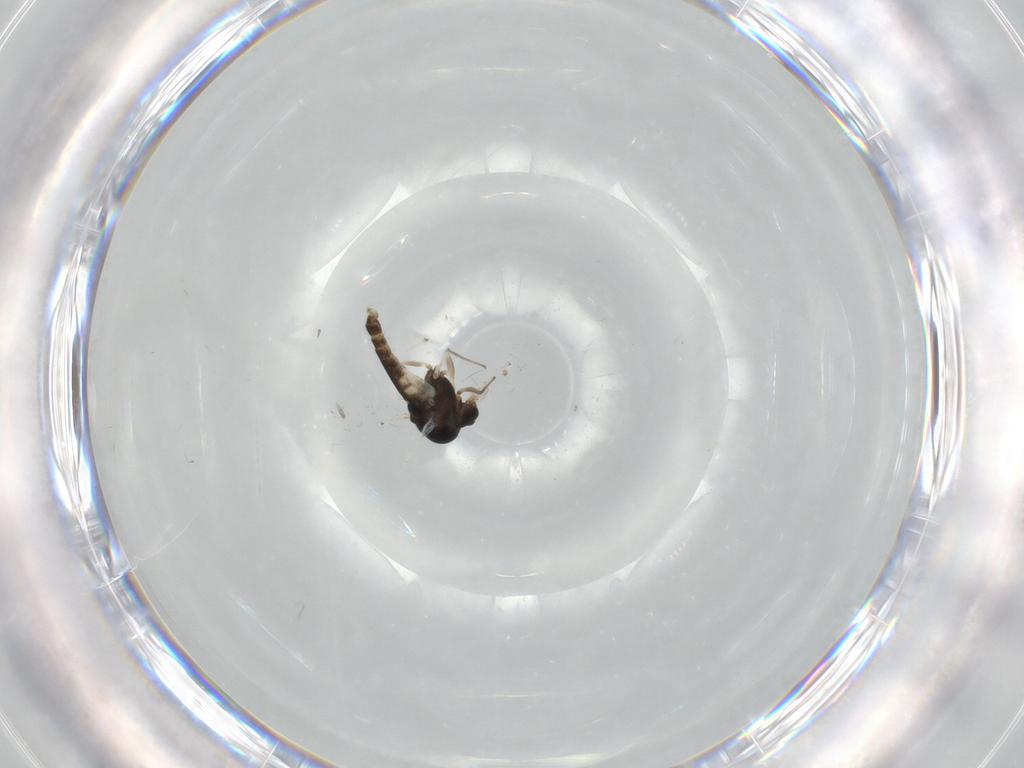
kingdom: Animalia
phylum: Arthropoda
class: Insecta
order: Diptera
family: Chironomidae
